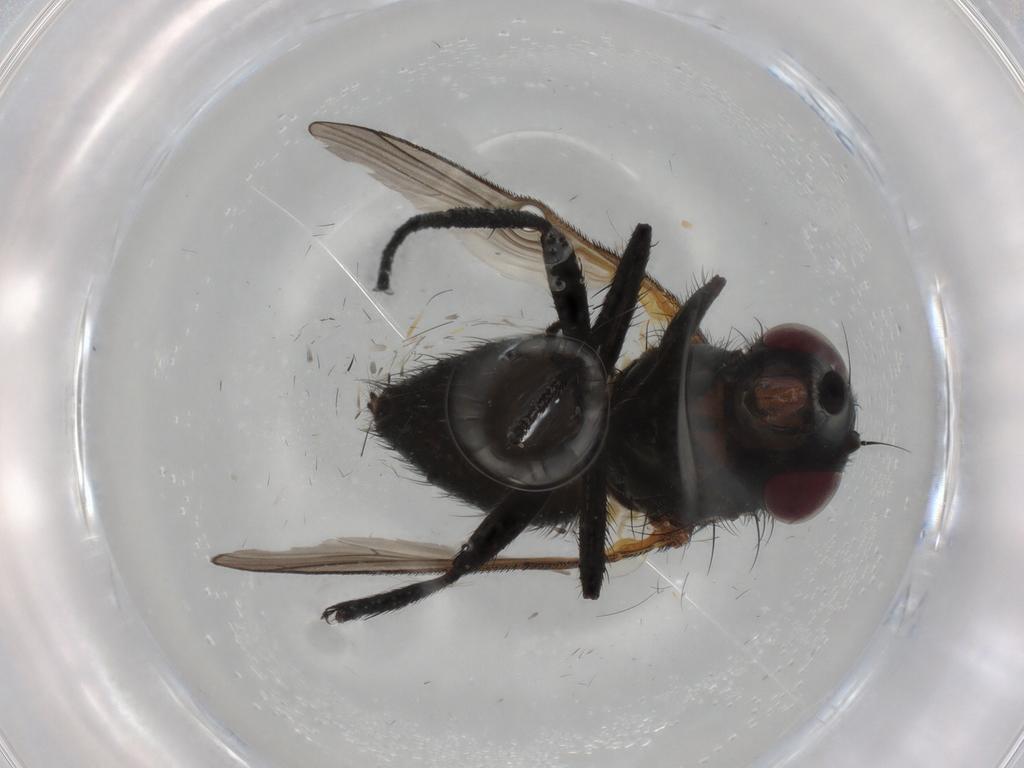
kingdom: Animalia
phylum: Arthropoda
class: Insecta
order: Diptera
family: Fannia
